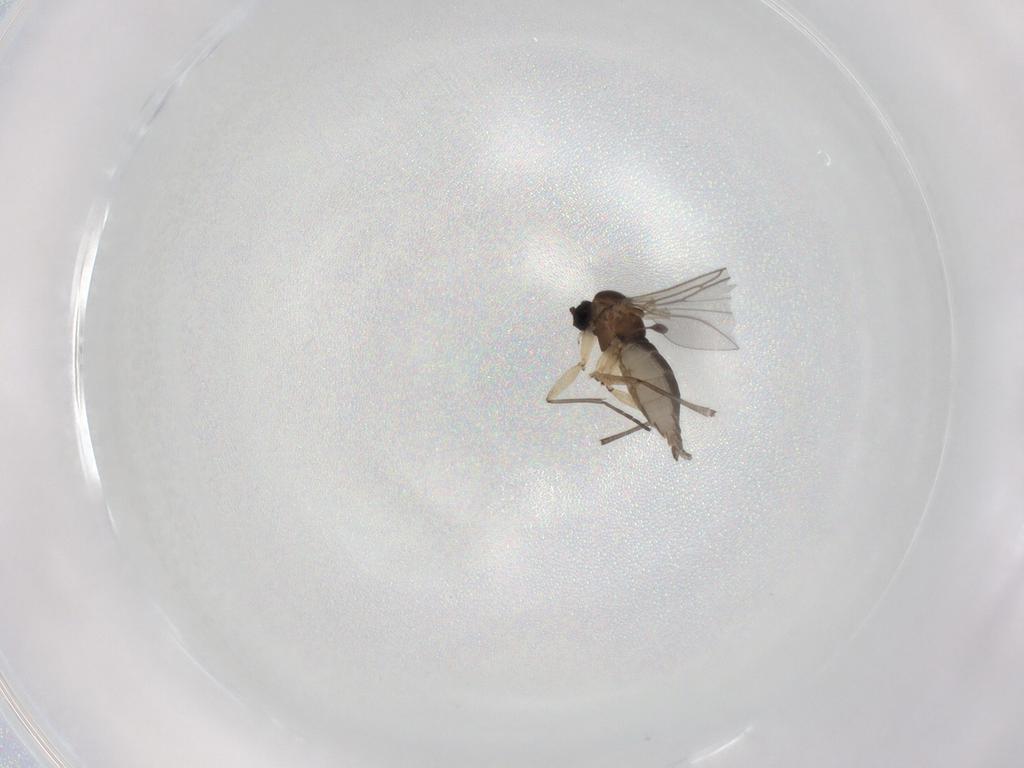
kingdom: Animalia
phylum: Arthropoda
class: Insecta
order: Diptera
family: Sciaridae
